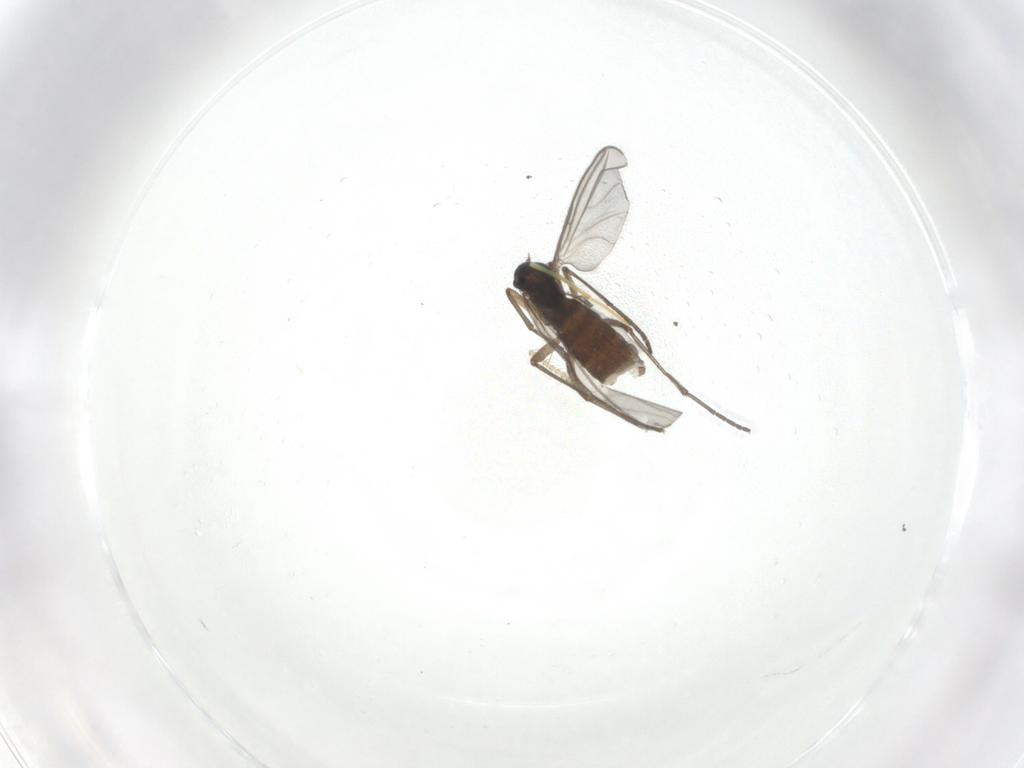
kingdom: Animalia
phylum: Arthropoda
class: Insecta
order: Diptera
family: Sciaridae
